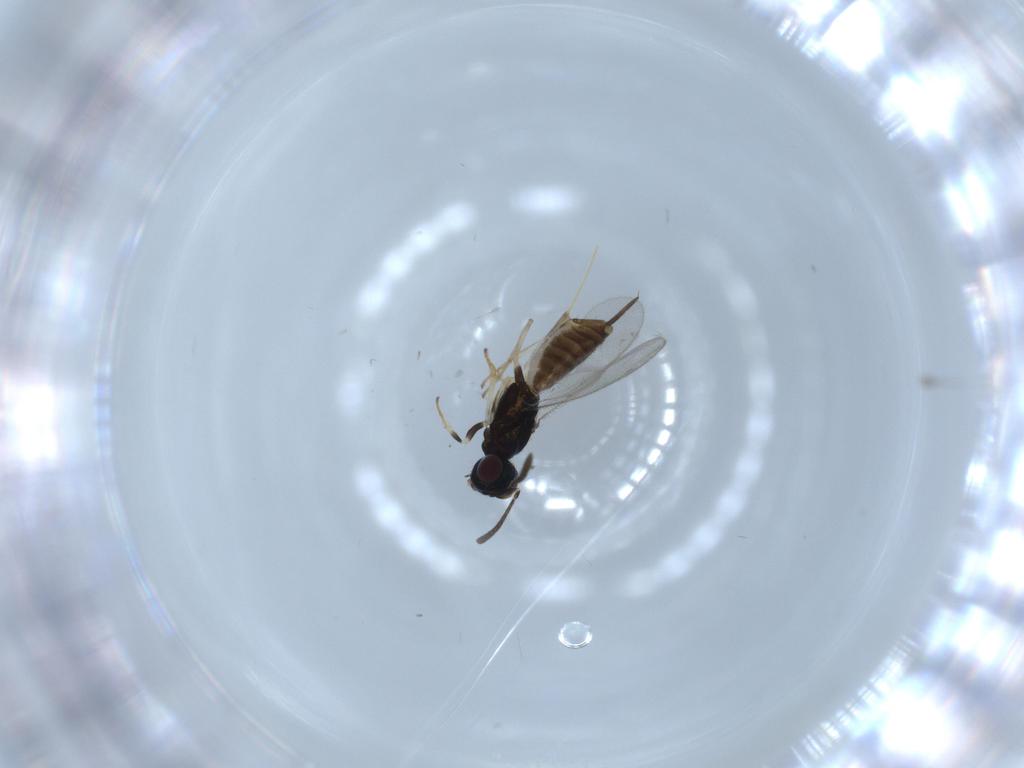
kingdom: Animalia
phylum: Arthropoda
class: Insecta
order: Hymenoptera
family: Eupelmidae
